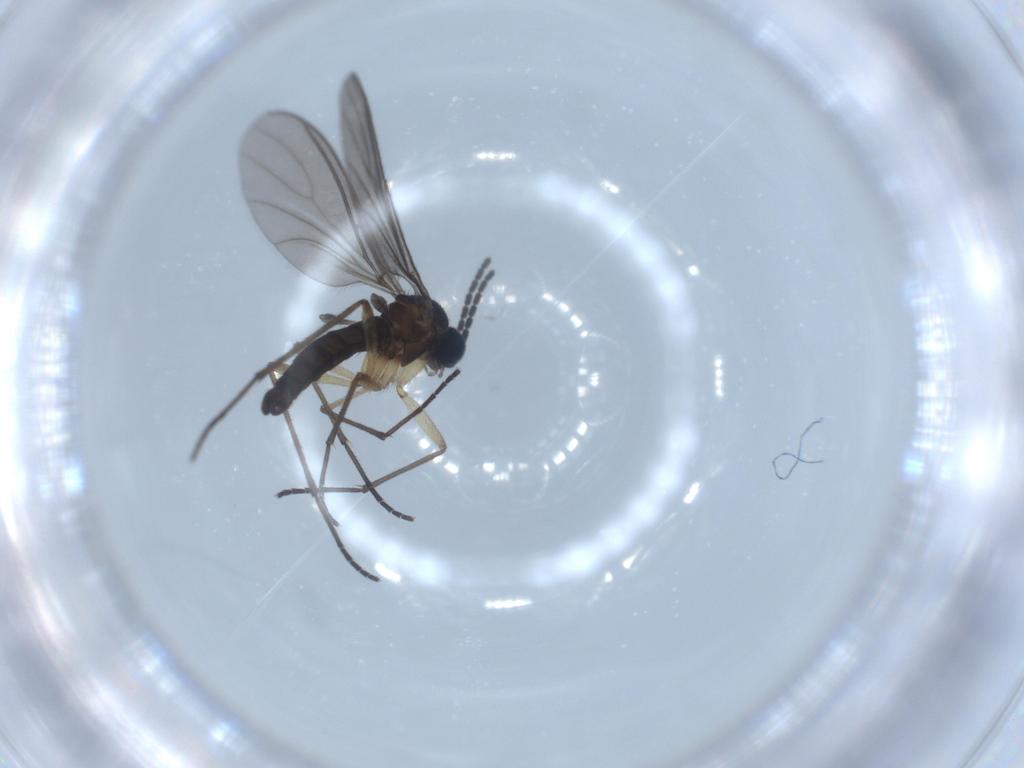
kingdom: Animalia
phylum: Arthropoda
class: Insecta
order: Diptera
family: Sciaridae
